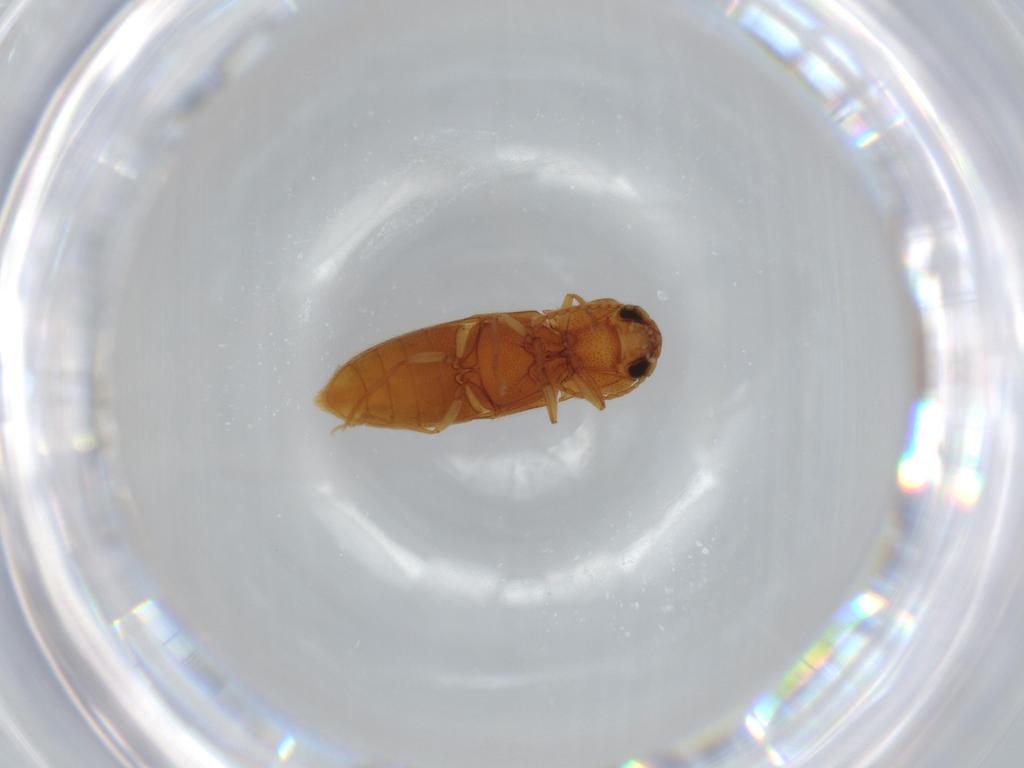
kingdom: Animalia
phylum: Arthropoda
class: Insecta
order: Coleoptera
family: Elateridae
